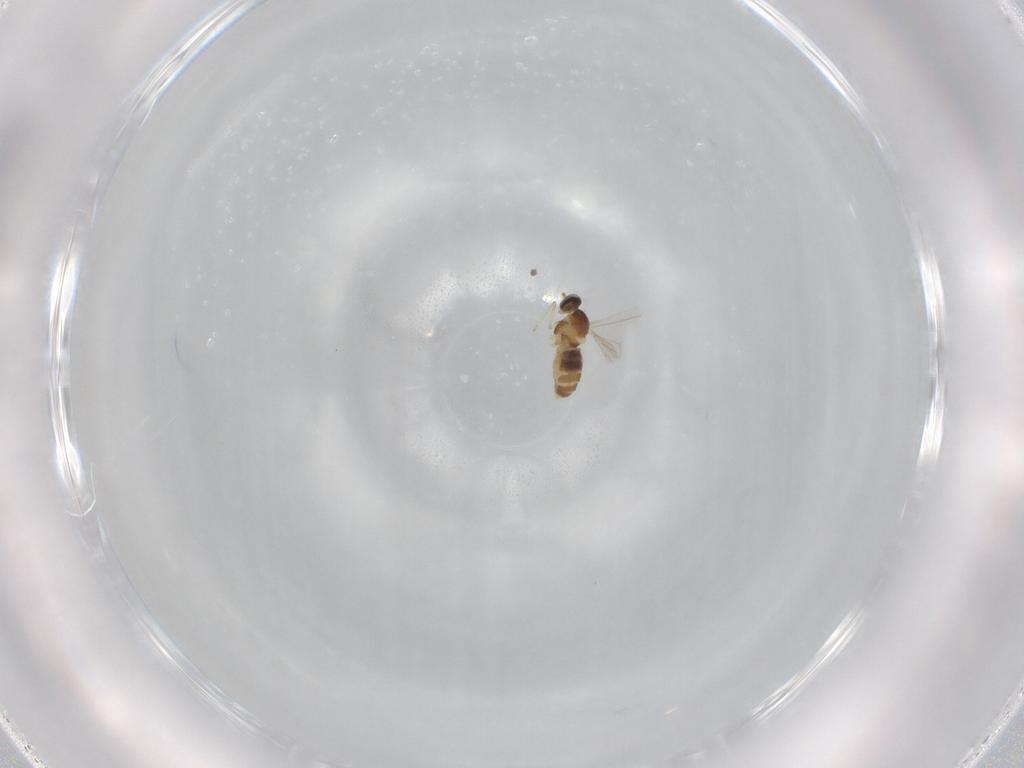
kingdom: Animalia
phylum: Arthropoda
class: Insecta
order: Diptera
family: Cecidomyiidae
